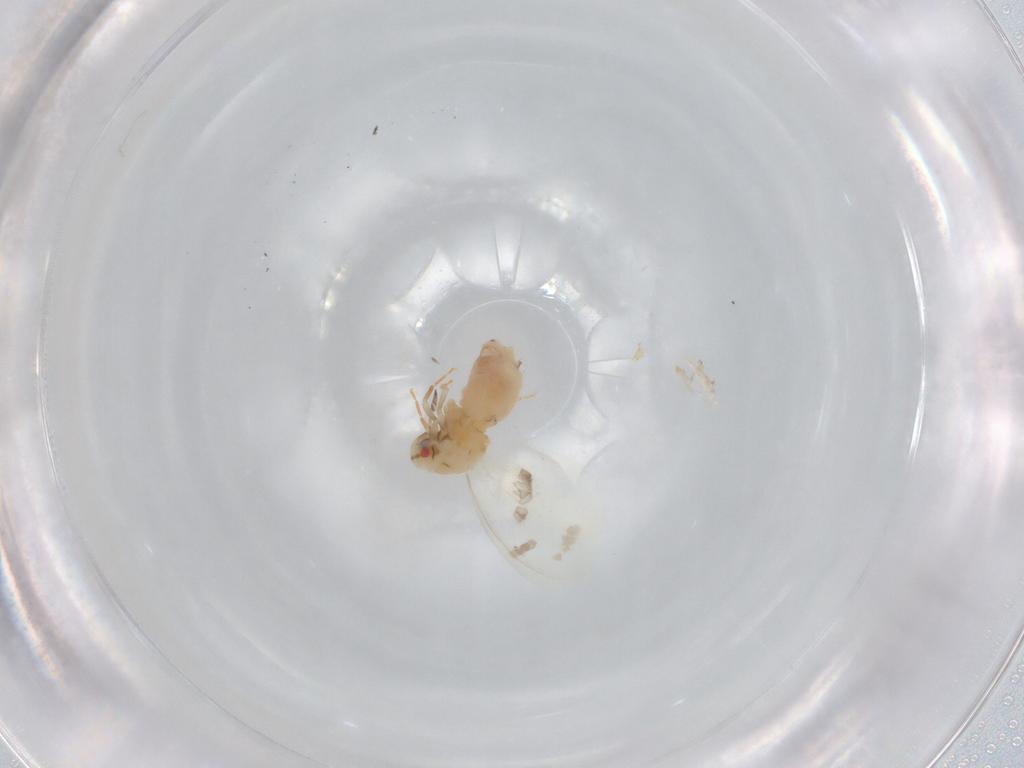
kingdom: Animalia
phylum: Arthropoda
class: Insecta
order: Hemiptera
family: Aleyrodidae
